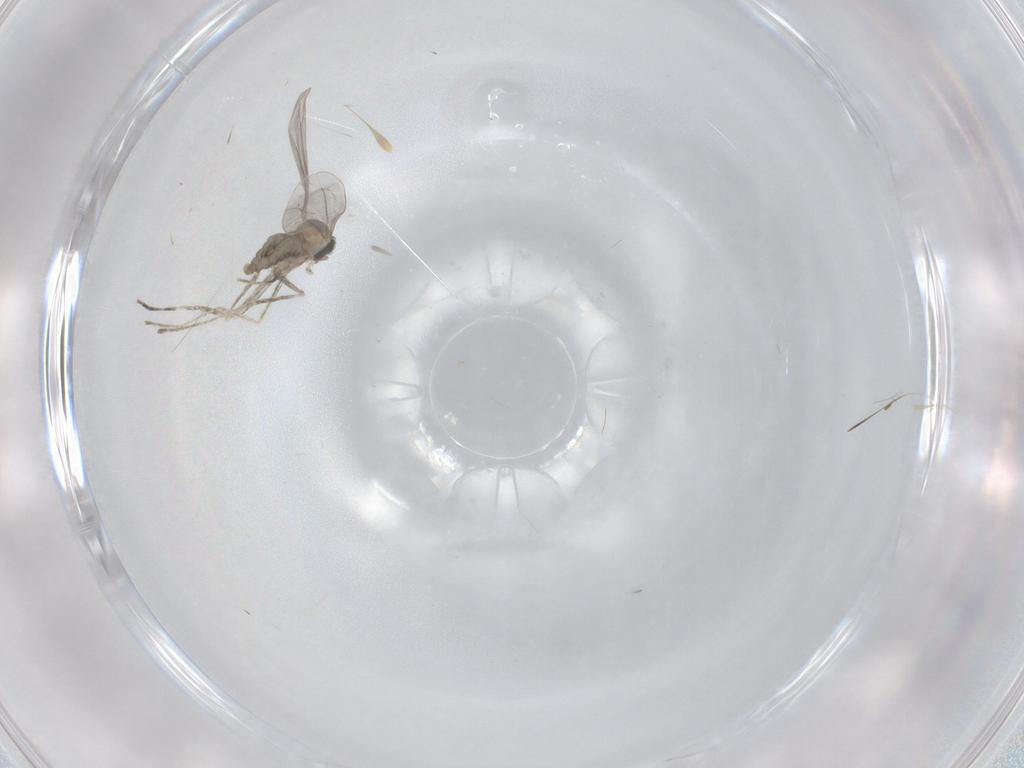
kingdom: Animalia
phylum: Arthropoda
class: Insecta
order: Diptera
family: Cecidomyiidae
